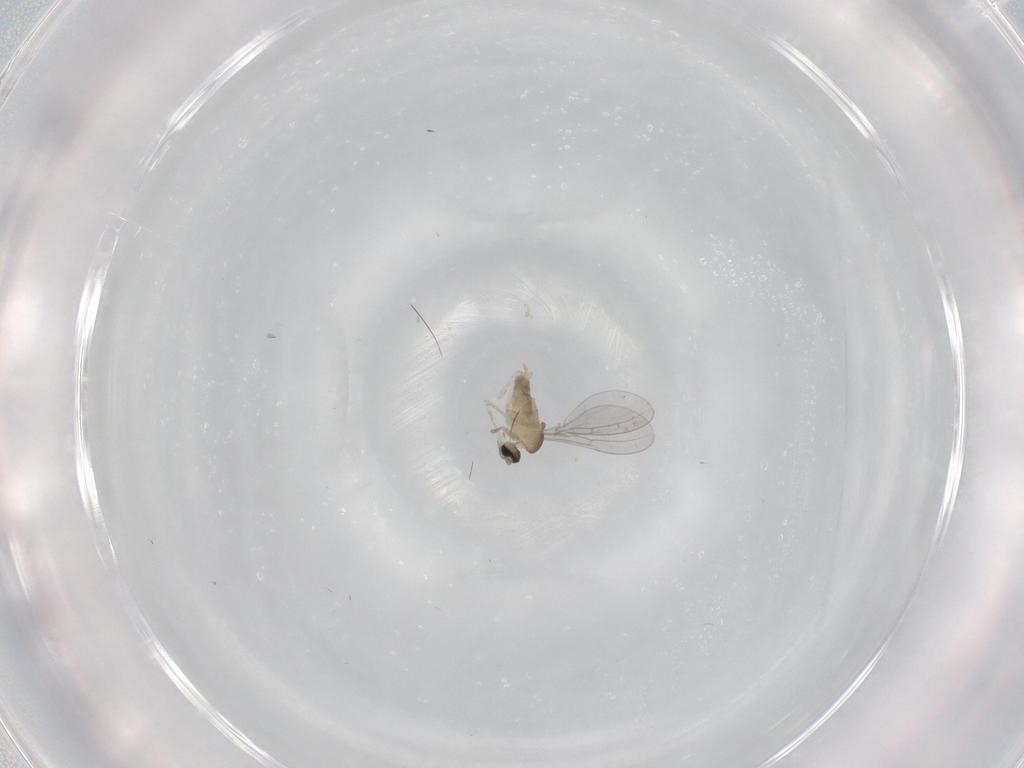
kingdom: Animalia
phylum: Arthropoda
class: Insecta
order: Diptera
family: Cecidomyiidae
